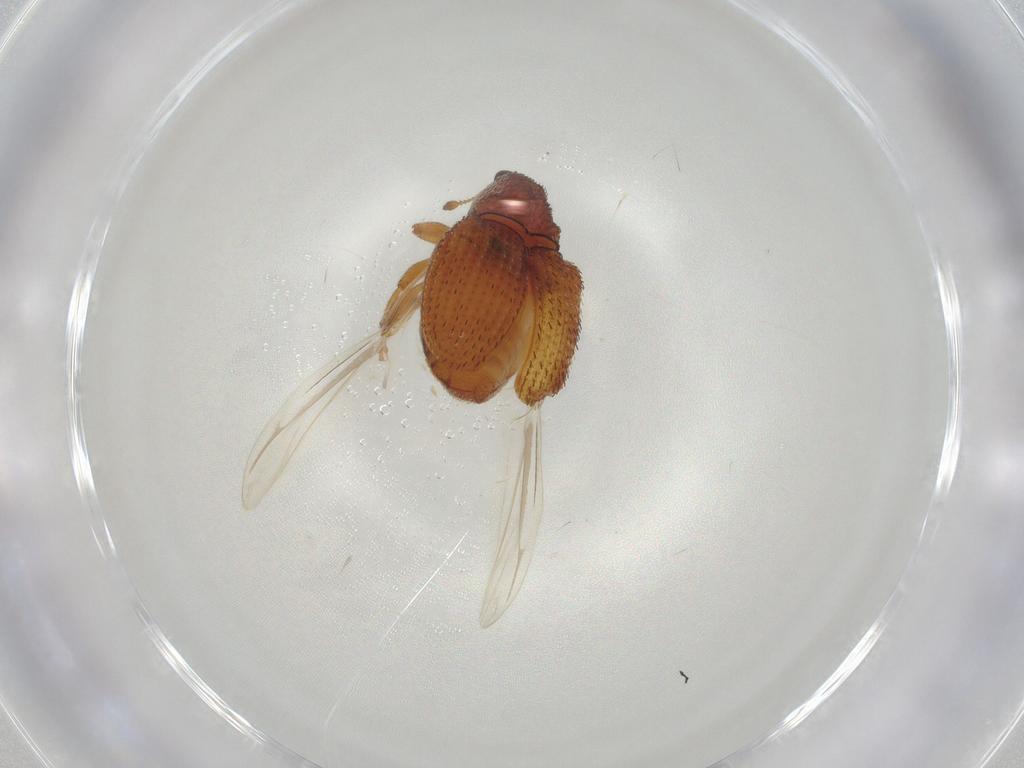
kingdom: Animalia
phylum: Arthropoda
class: Insecta
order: Coleoptera
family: Curculionidae
